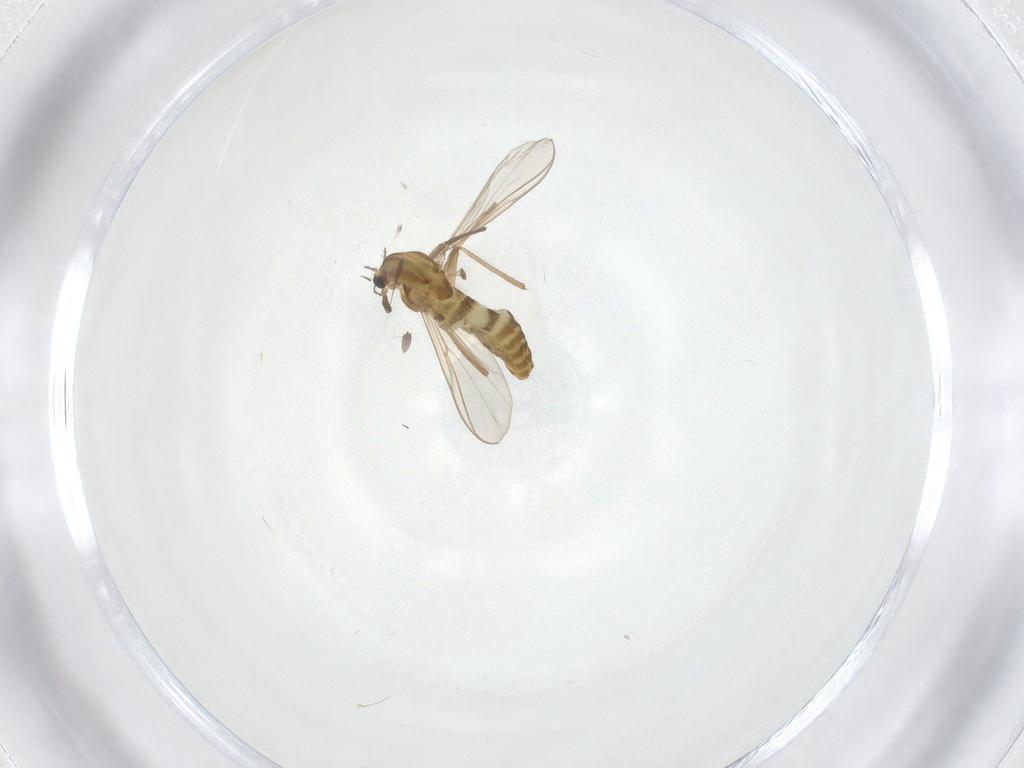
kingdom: Animalia
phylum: Arthropoda
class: Insecta
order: Diptera
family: Chironomidae
